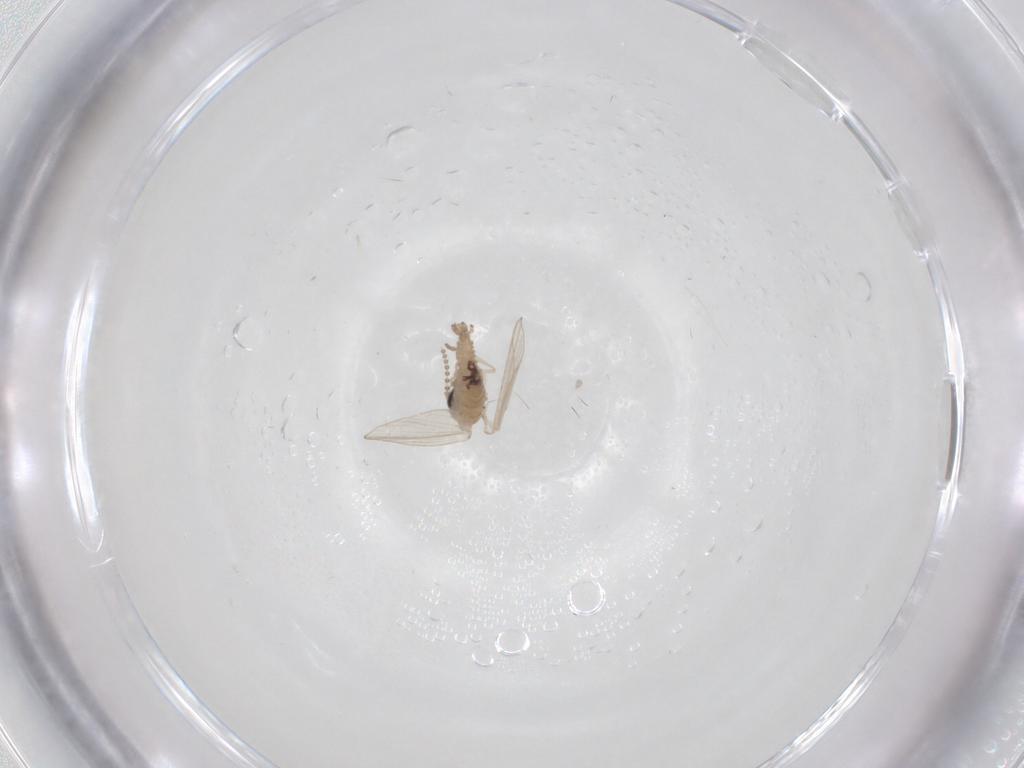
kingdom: Animalia
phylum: Arthropoda
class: Insecta
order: Diptera
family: Psychodidae
